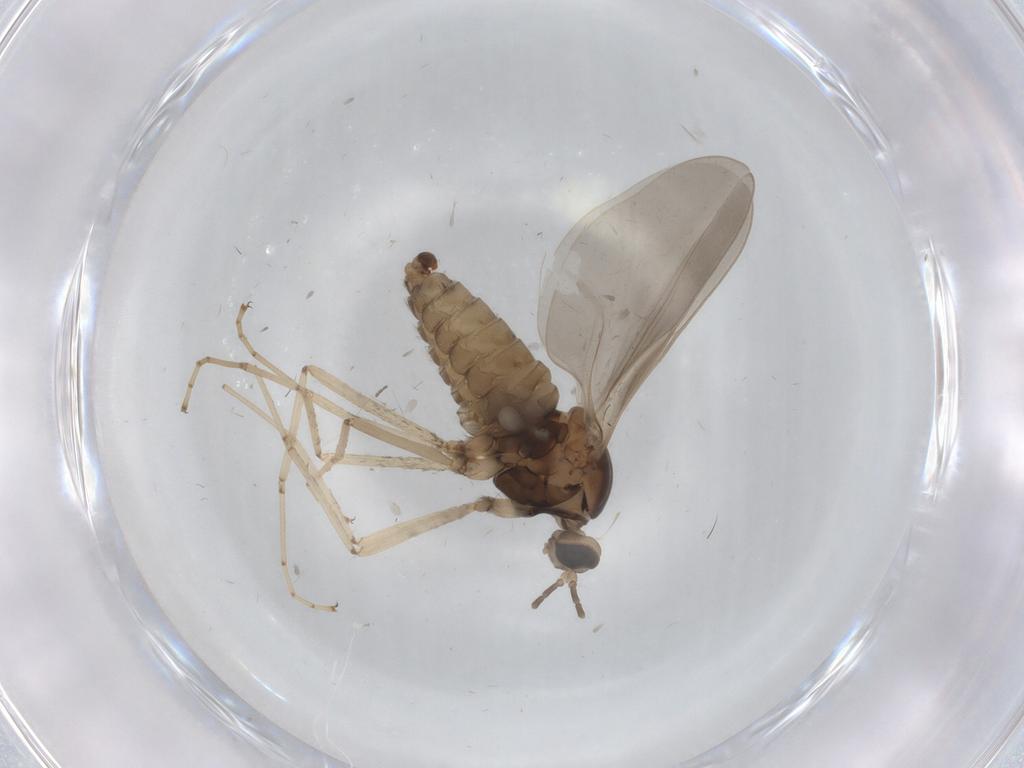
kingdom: Animalia
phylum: Arthropoda
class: Insecta
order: Diptera
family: Cecidomyiidae
